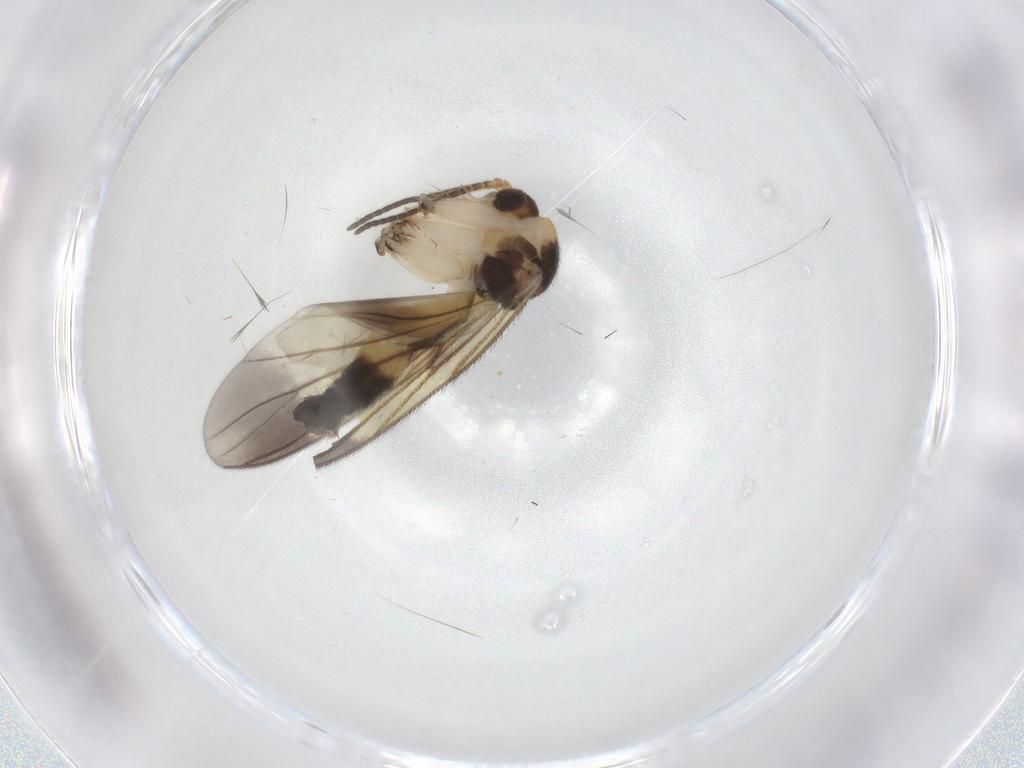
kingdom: Animalia
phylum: Arthropoda
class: Insecta
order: Diptera
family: Mycetophilidae
